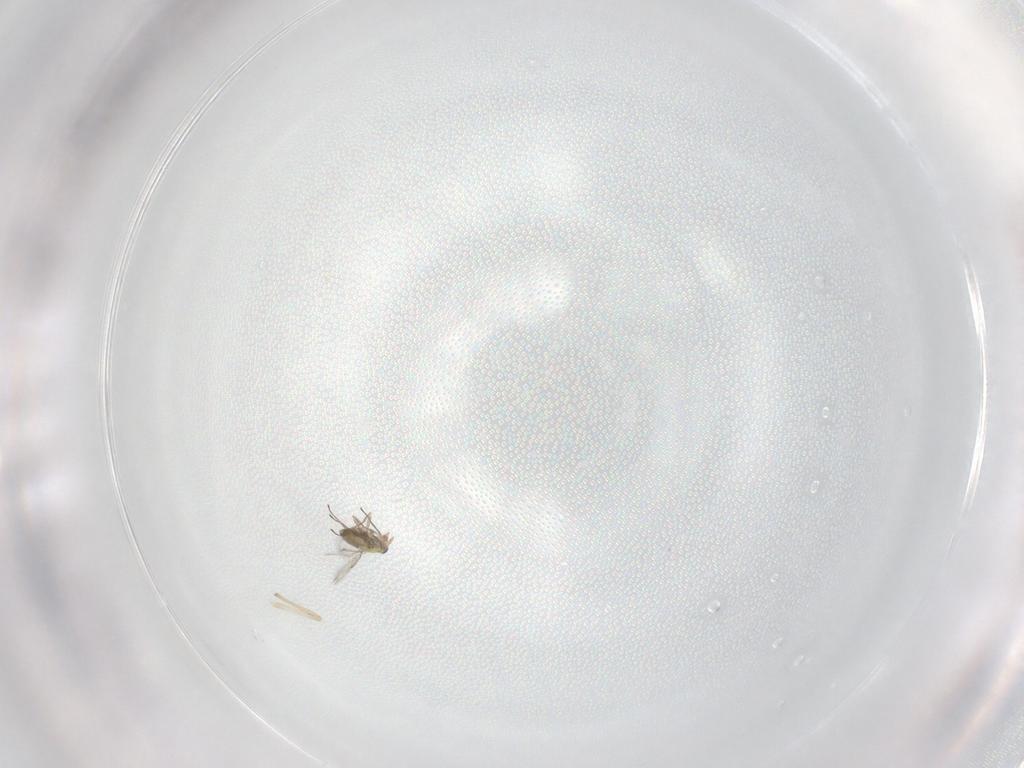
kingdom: Animalia
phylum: Arthropoda
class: Insecta
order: Hymenoptera
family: Trichogrammatidae
